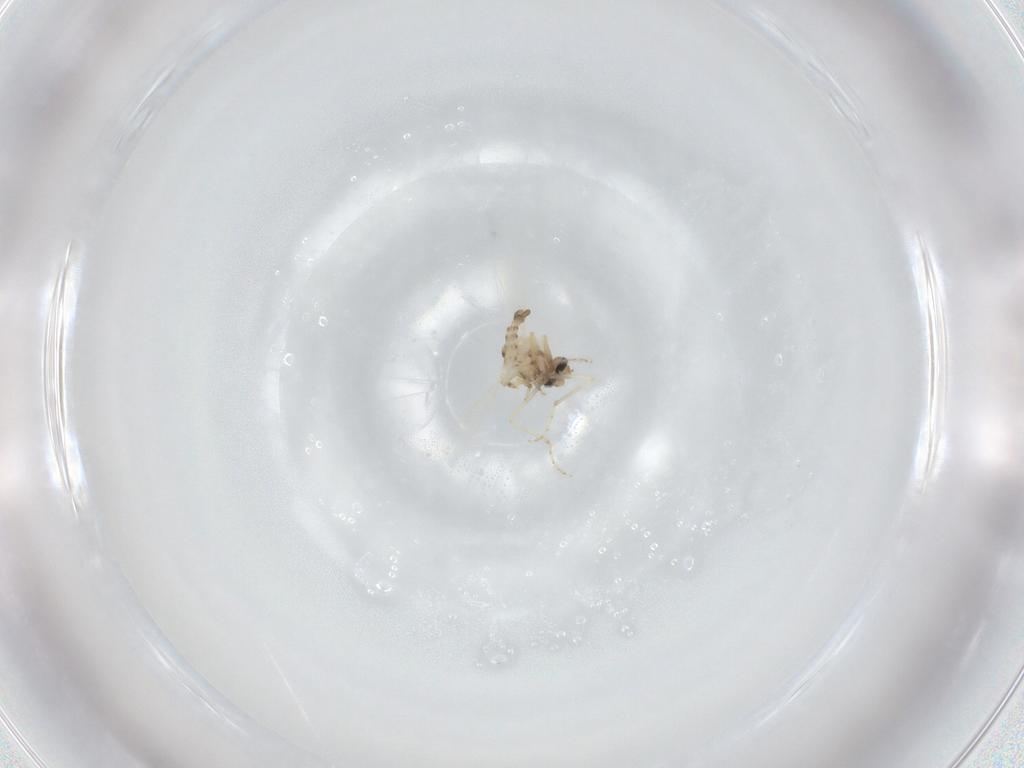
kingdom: Animalia
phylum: Arthropoda
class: Insecta
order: Diptera
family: Ceratopogonidae
